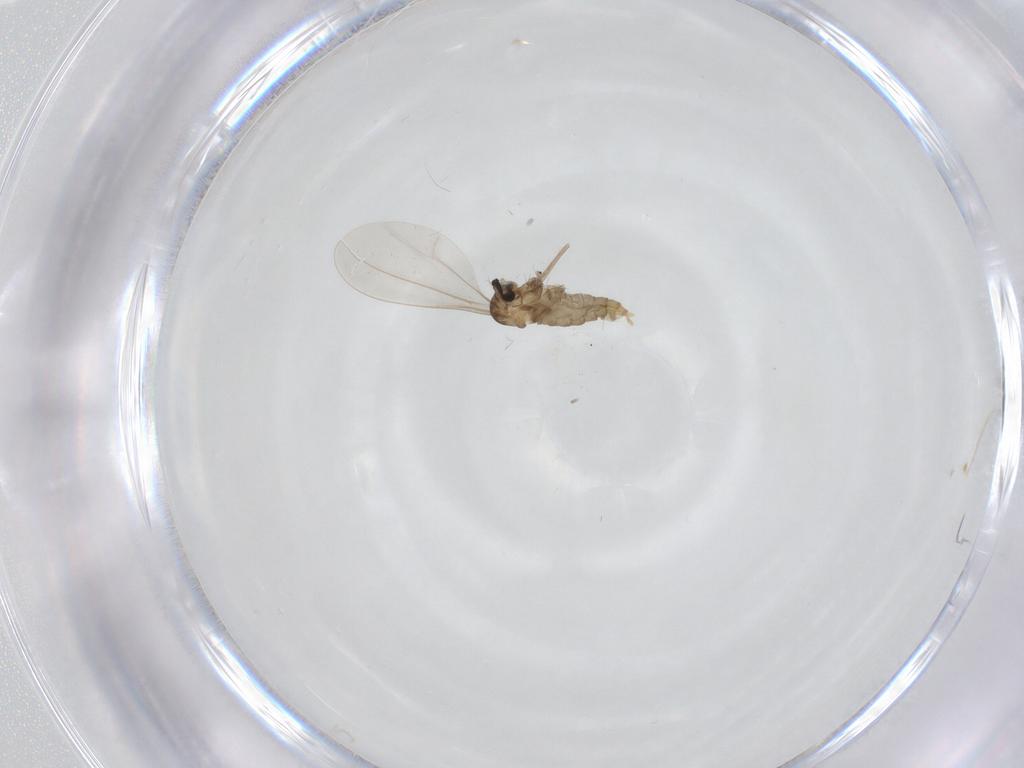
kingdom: Animalia
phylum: Arthropoda
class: Insecta
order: Diptera
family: Cecidomyiidae
